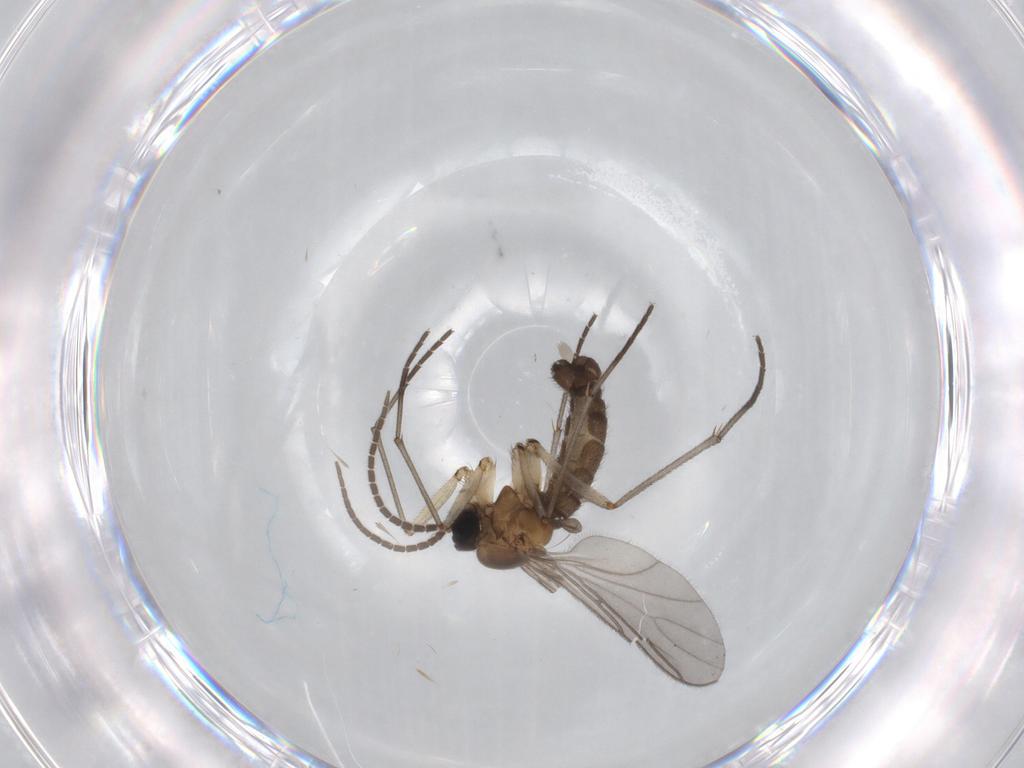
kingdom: Animalia
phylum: Arthropoda
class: Insecta
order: Diptera
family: Sciaridae
